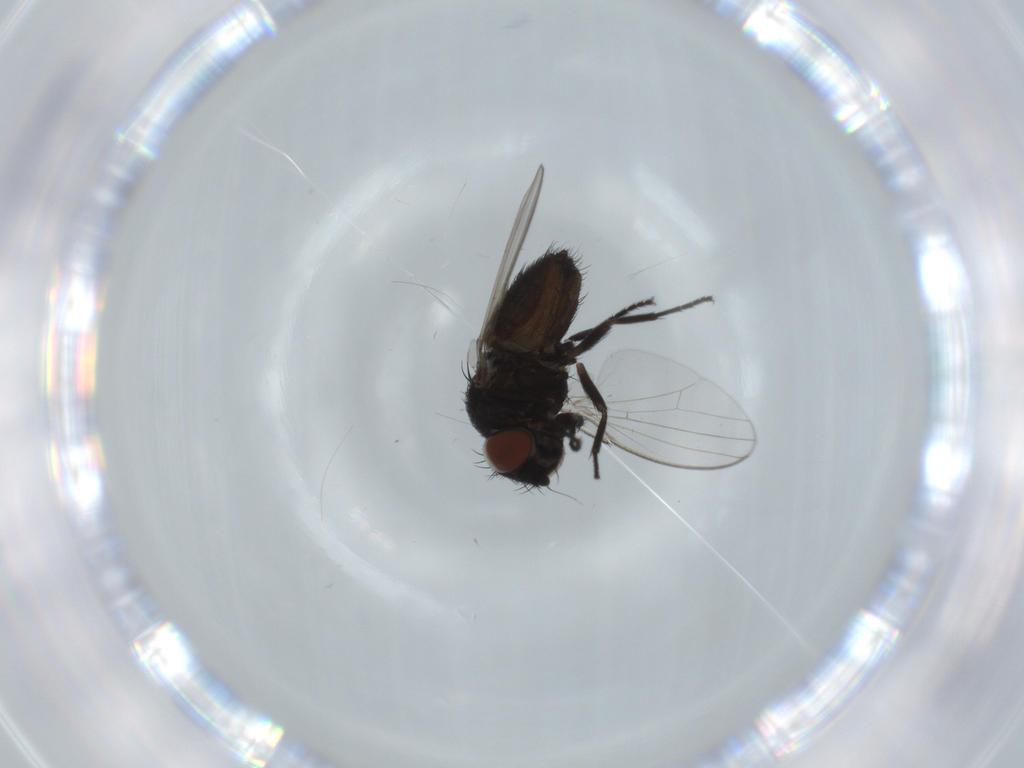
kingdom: Animalia
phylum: Arthropoda
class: Insecta
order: Diptera
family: Milichiidae
